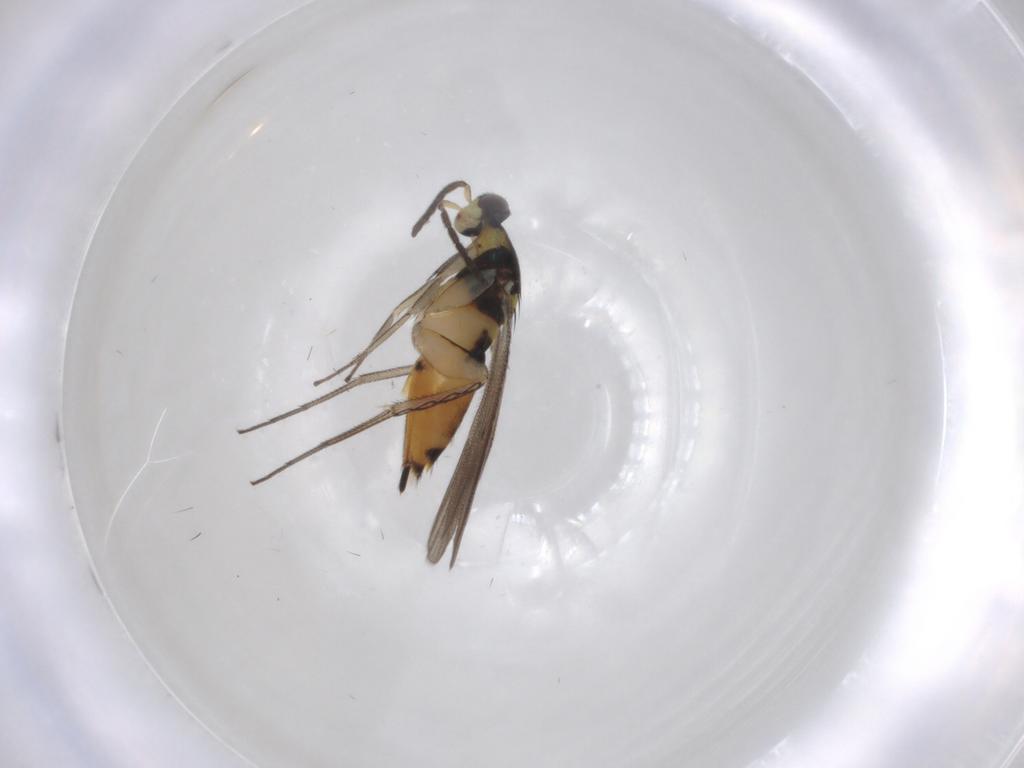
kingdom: Animalia
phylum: Arthropoda
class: Insecta
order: Hymenoptera
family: Eulophidae
